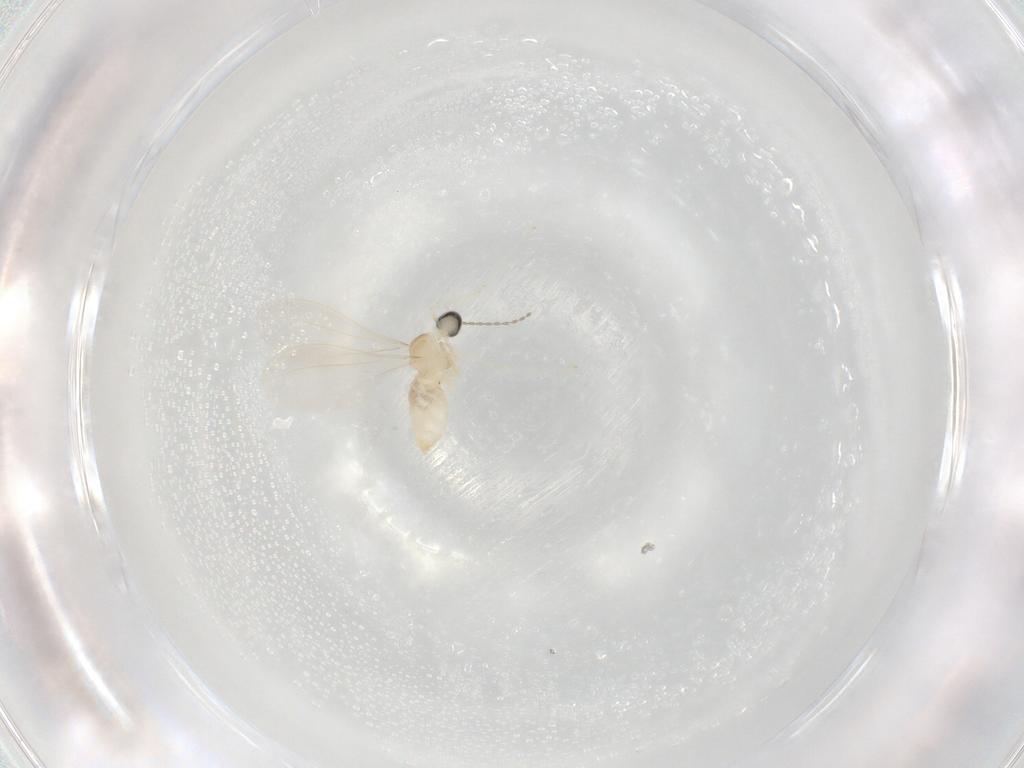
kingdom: Animalia
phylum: Arthropoda
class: Insecta
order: Diptera
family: Cecidomyiidae
